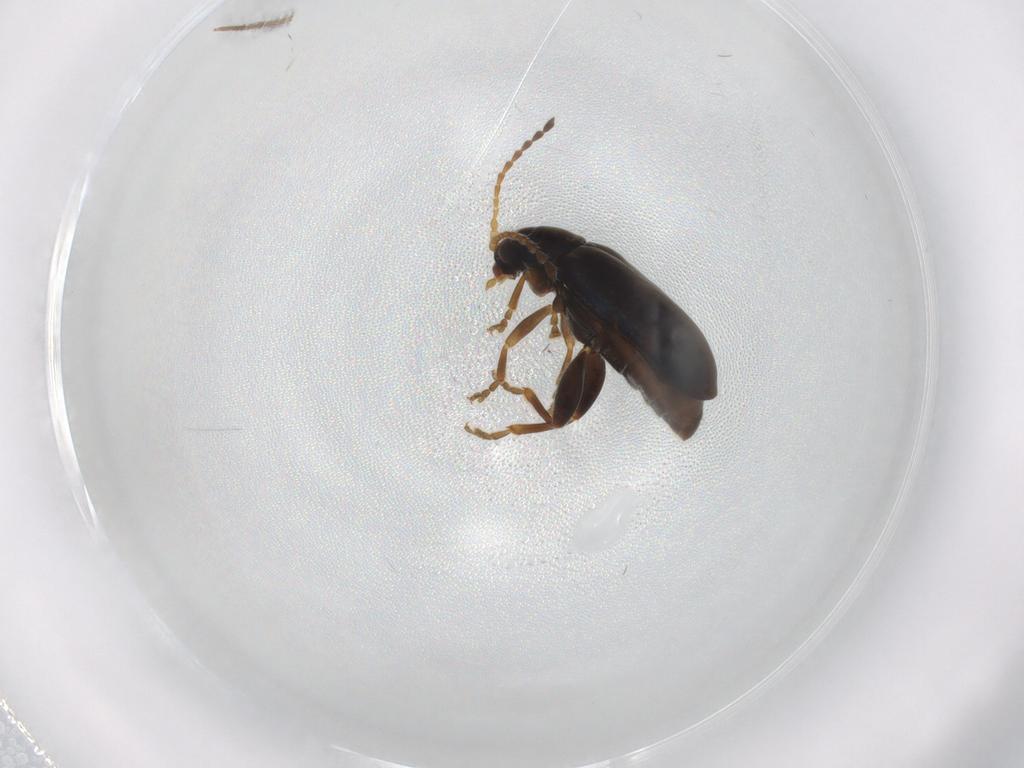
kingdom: Animalia
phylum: Arthropoda
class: Insecta
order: Coleoptera
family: Chrysomelidae
